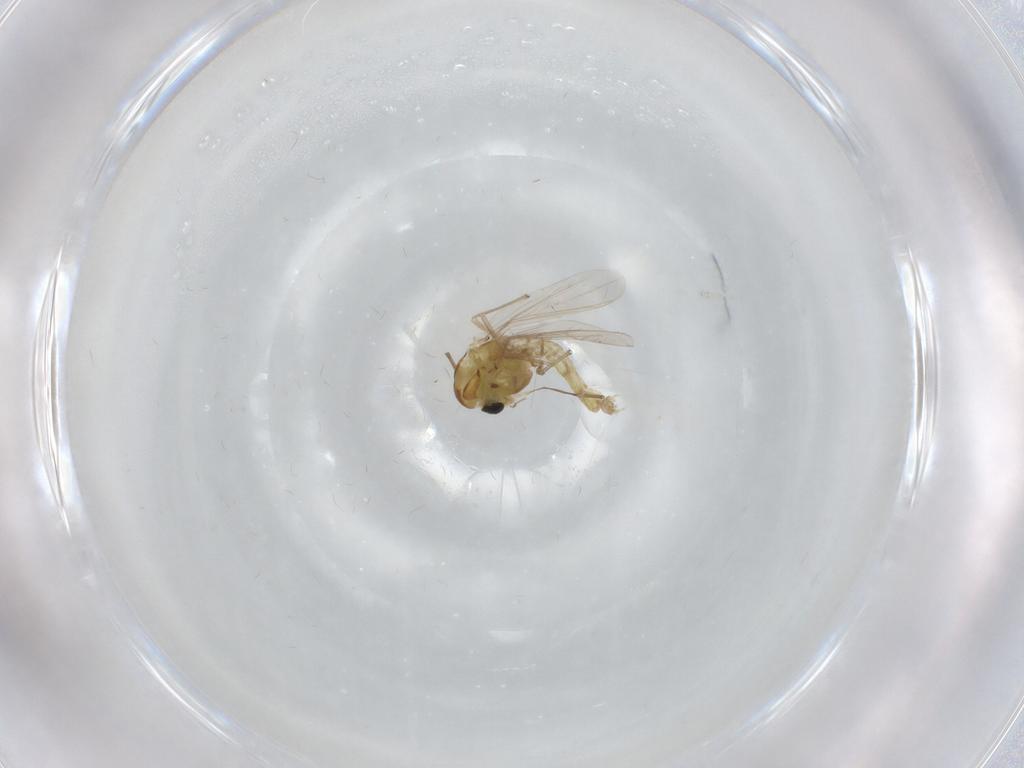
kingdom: Animalia
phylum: Arthropoda
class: Insecta
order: Diptera
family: Chironomidae
